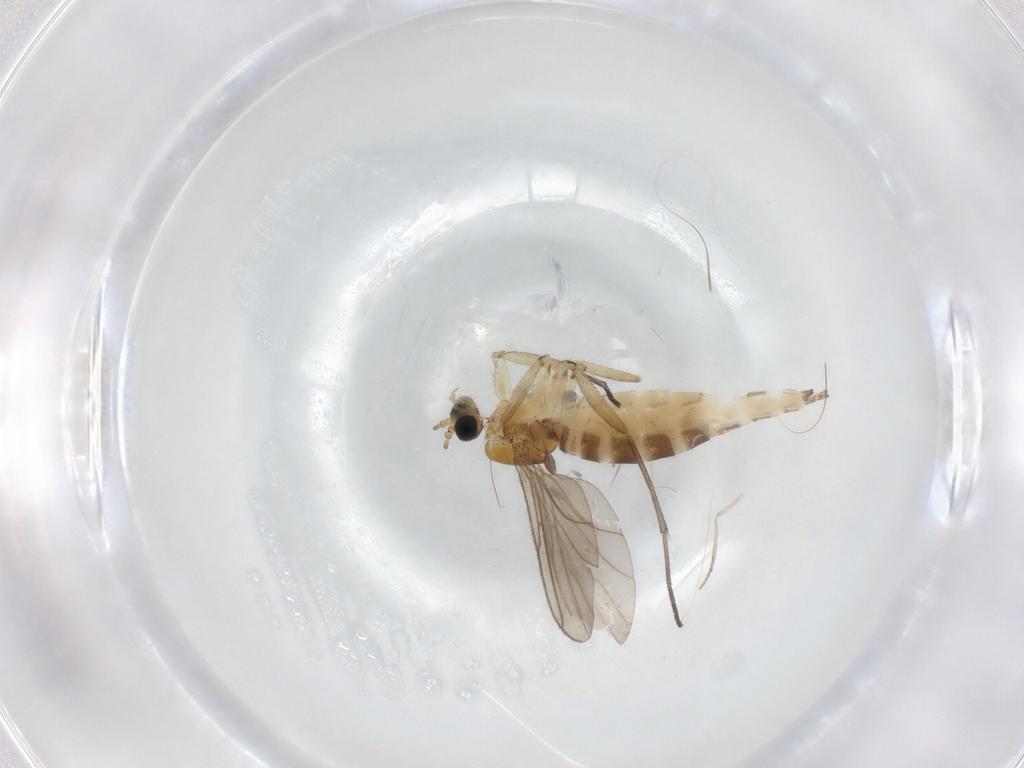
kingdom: Animalia
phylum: Arthropoda
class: Insecta
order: Diptera
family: Psychodidae
